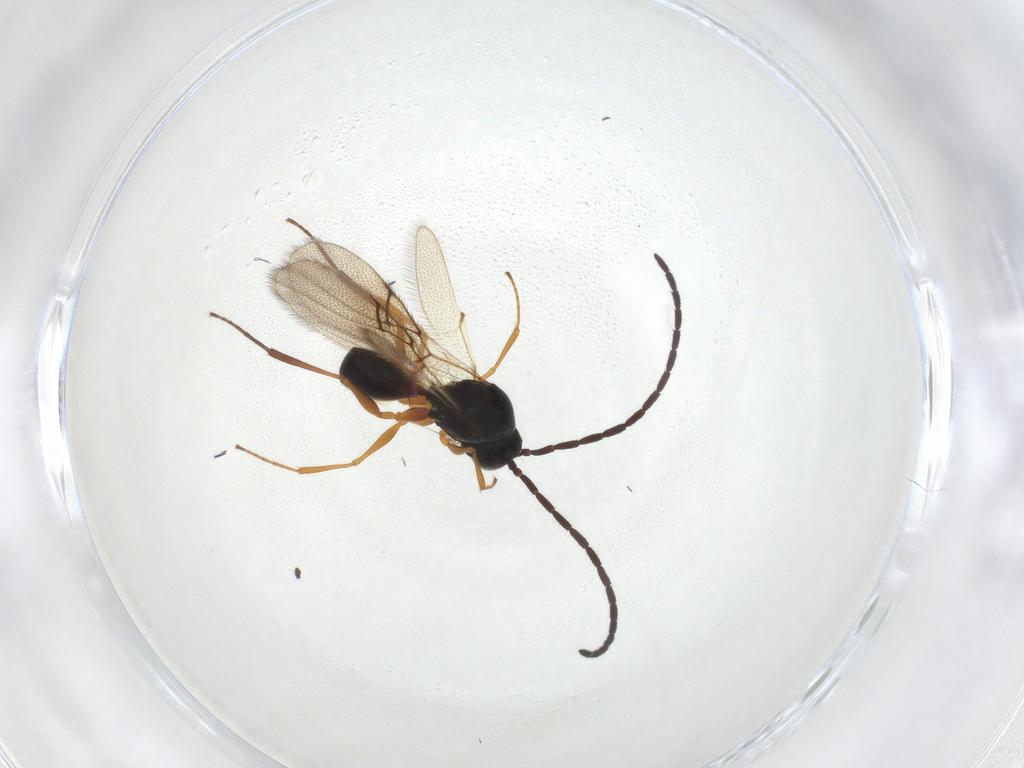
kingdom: Animalia
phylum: Arthropoda
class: Insecta
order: Hymenoptera
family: Figitidae
